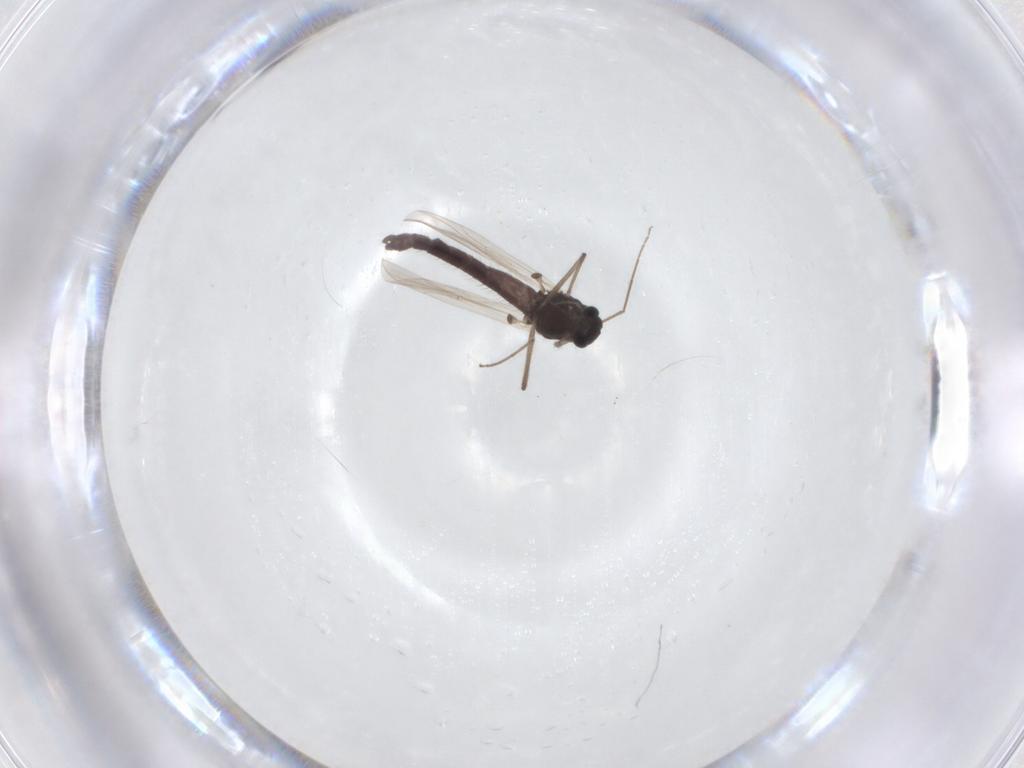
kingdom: Animalia
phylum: Arthropoda
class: Insecta
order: Diptera
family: Chironomidae
